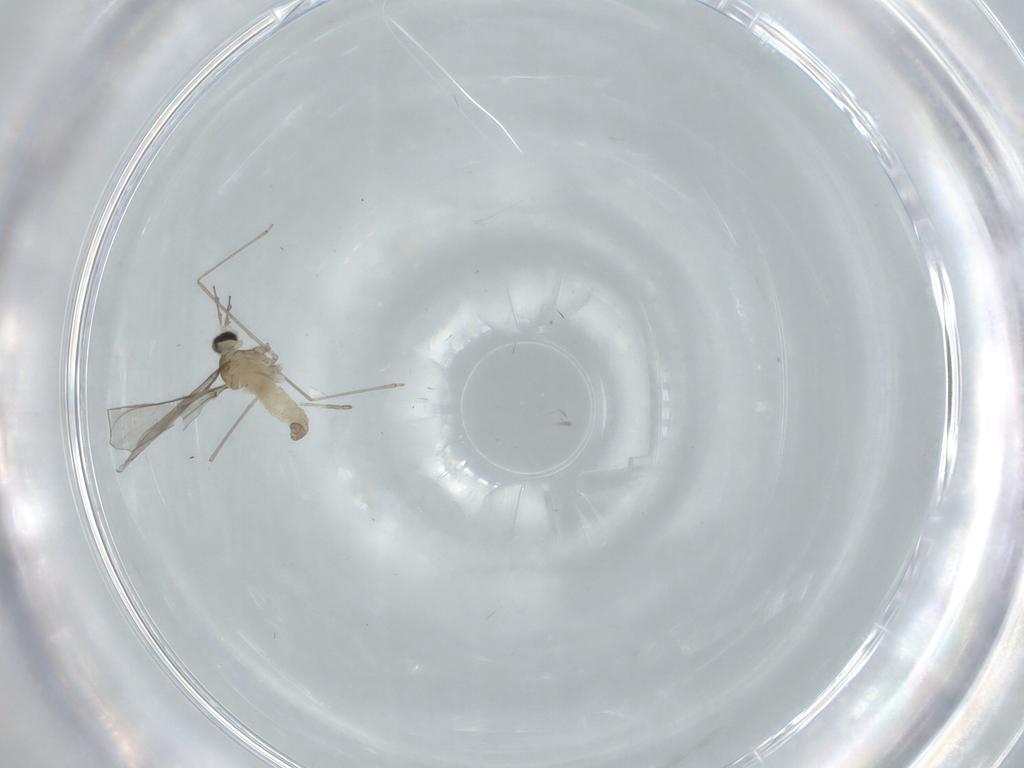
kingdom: Animalia
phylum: Arthropoda
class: Insecta
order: Diptera
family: Cecidomyiidae
